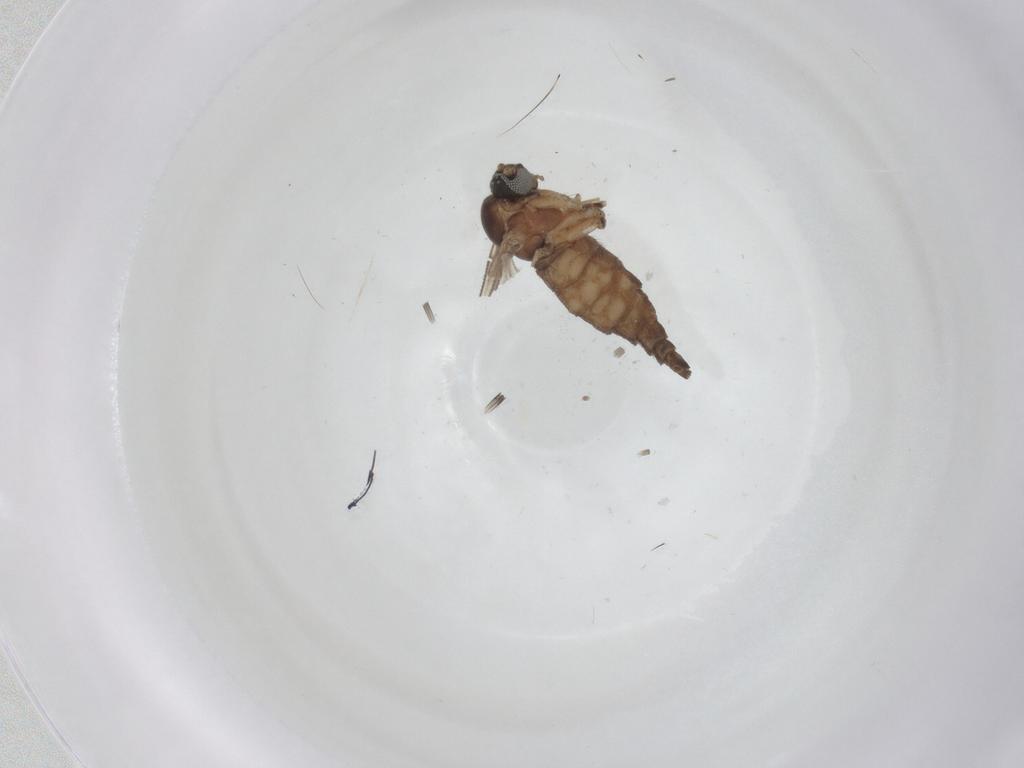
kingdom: Animalia
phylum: Arthropoda
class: Insecta
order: Diptera
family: Sciaridae
